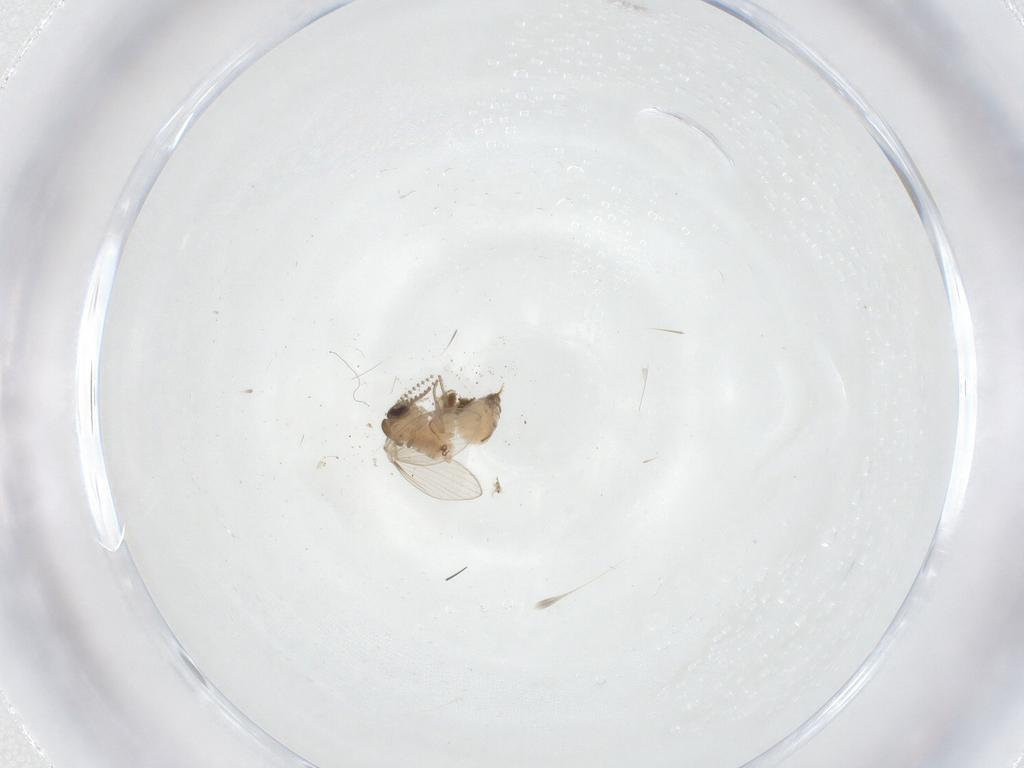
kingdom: Animalia
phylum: Arthropoda
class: Insecta
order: Diptera
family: Psychodidae
